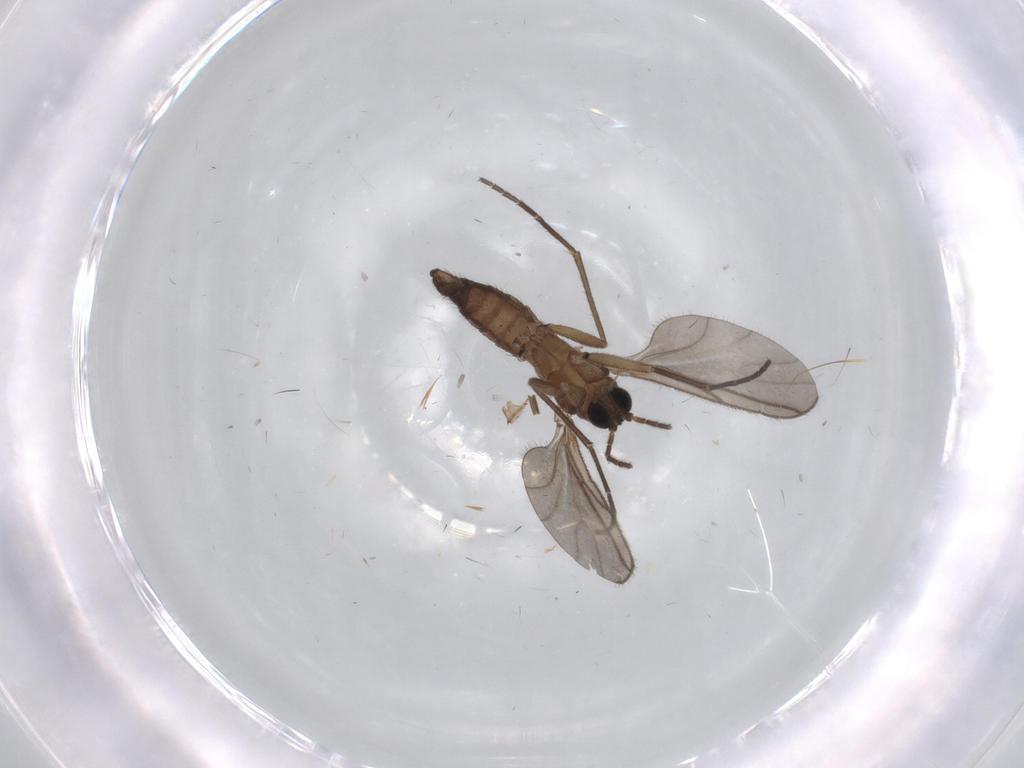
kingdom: Animalia
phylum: Arthropoda
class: Insecta
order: Diptera
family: Sciaridae
